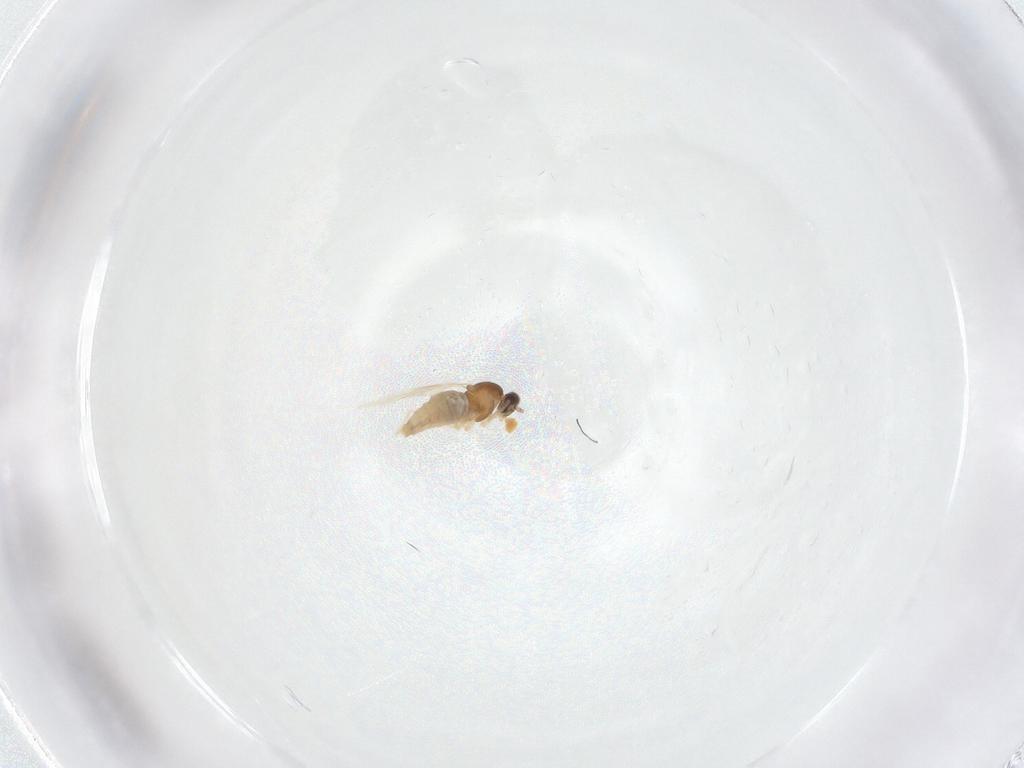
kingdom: Animalia
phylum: Arthropoda
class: Insecta
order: Diptera
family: Cecidomyiidae
